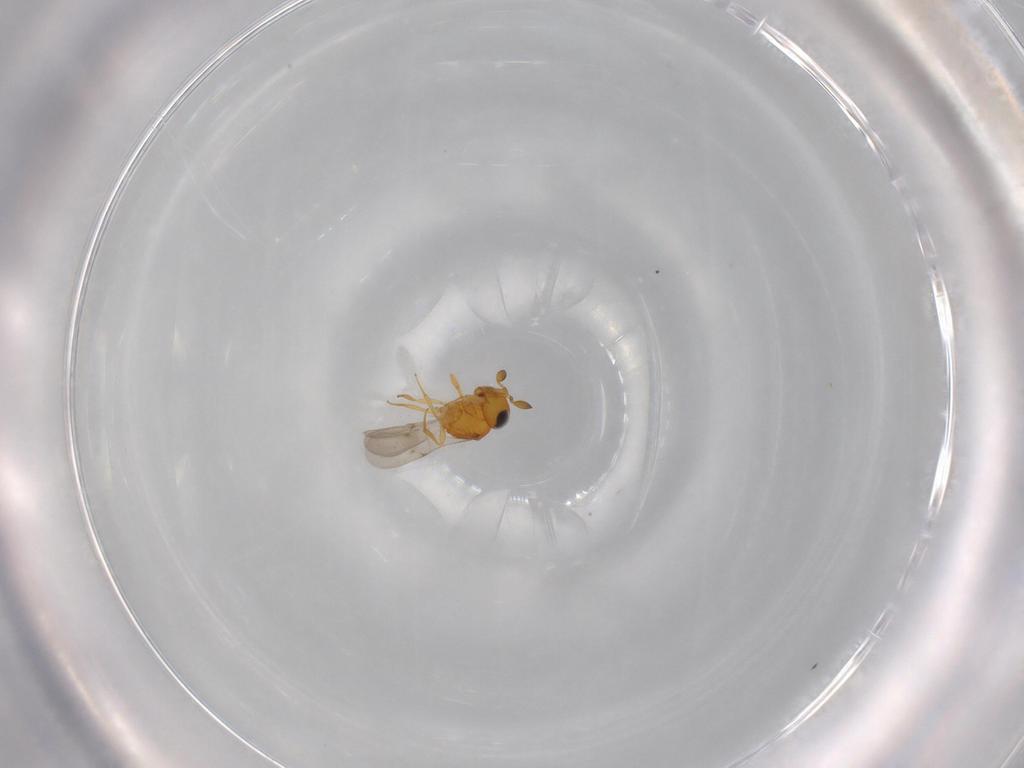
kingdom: Animalia
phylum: Arthropoda
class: Insecta
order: Hymenoptera
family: Scelionidae
